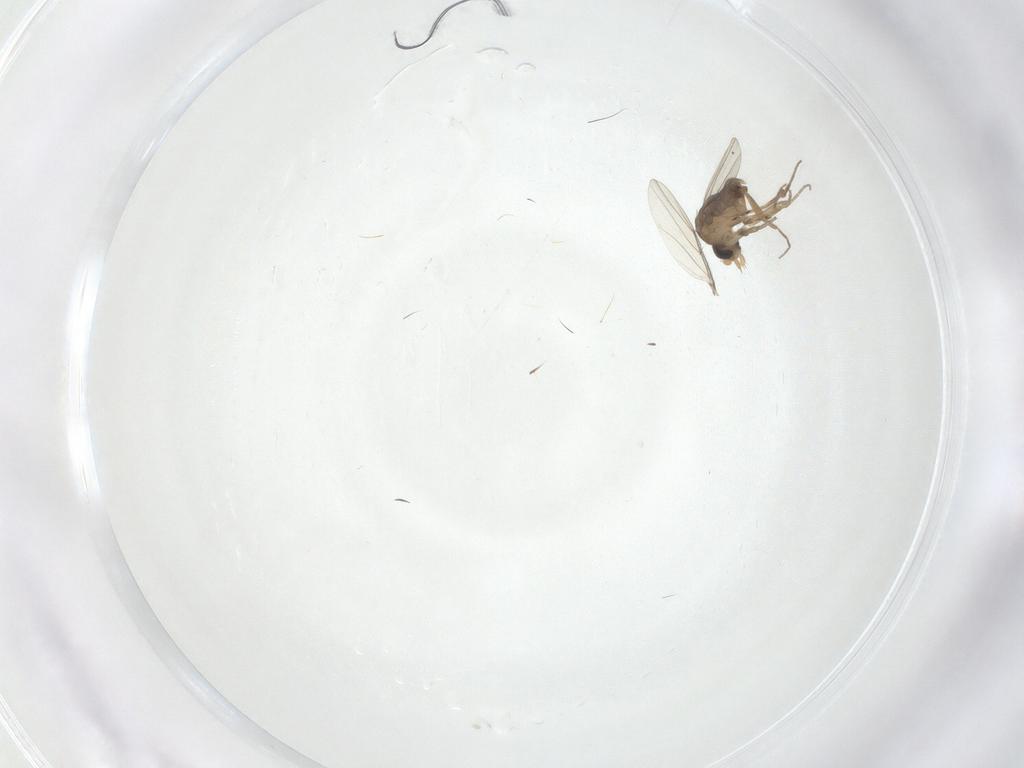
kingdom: Animalia
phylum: Arthropoda
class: Insecta
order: Diptera
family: Phoridae
